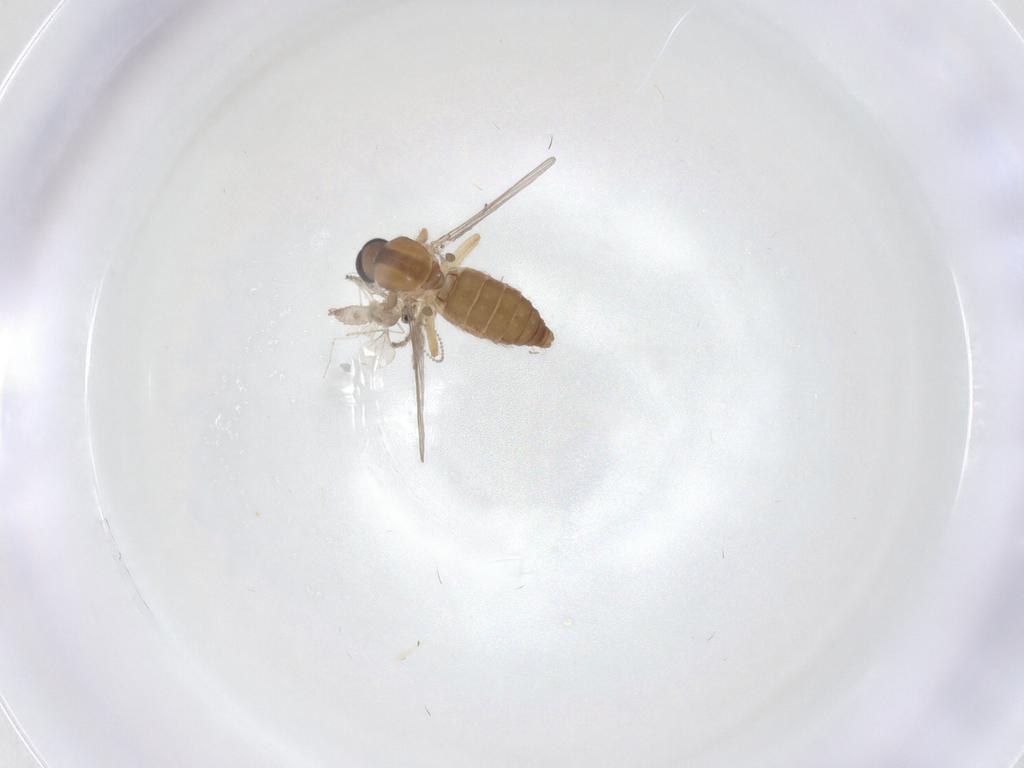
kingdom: Animalia
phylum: Arthropoda
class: Insecta
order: Diptera
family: Ceratopogonidae
